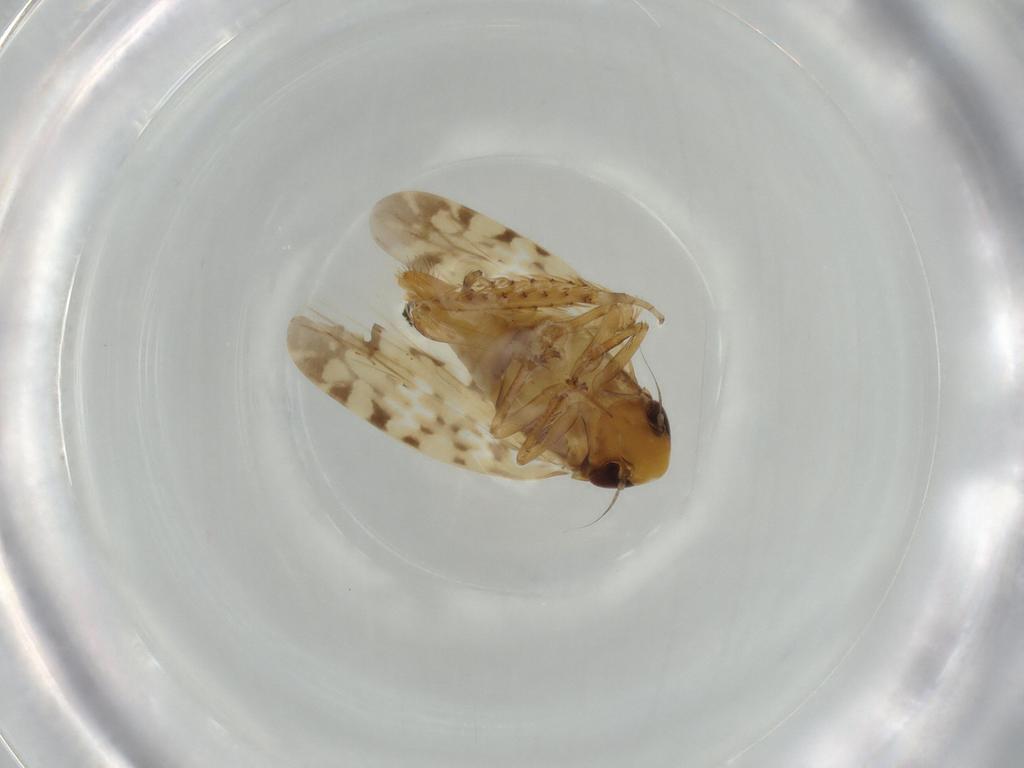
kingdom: Animalia
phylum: Arthropoda
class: Insecta
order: Hemiptera
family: Cicadellidae
